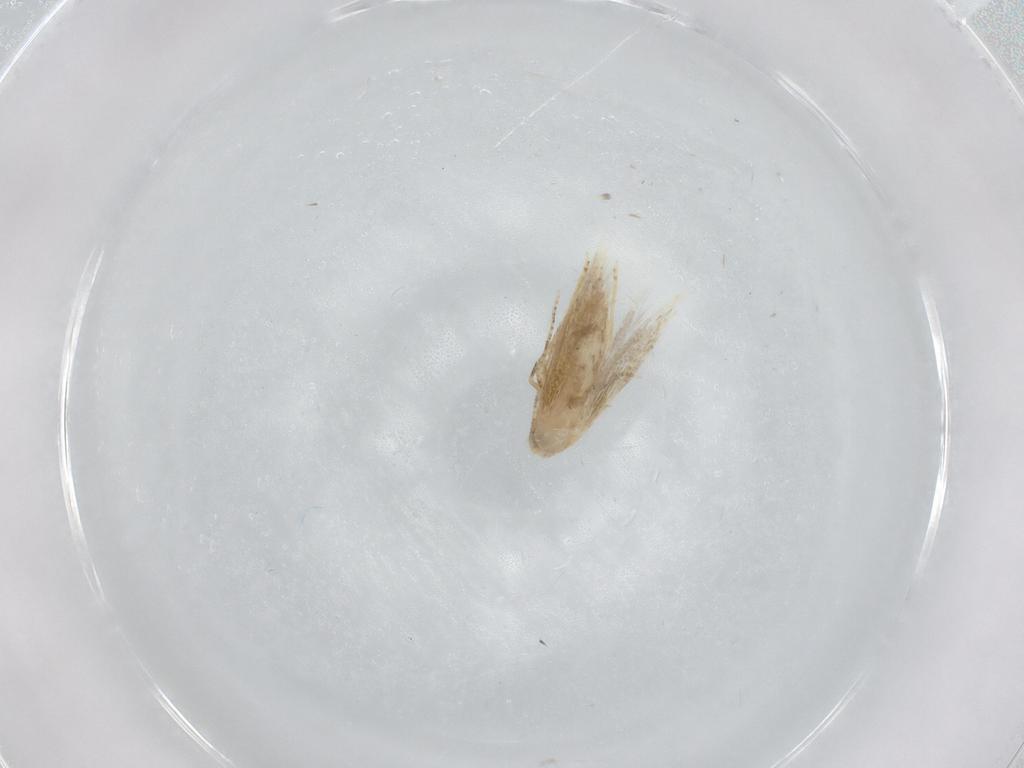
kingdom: Animalia
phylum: Arthropoda
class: Insecta
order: Lepidoptera
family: Bucculatricidae
